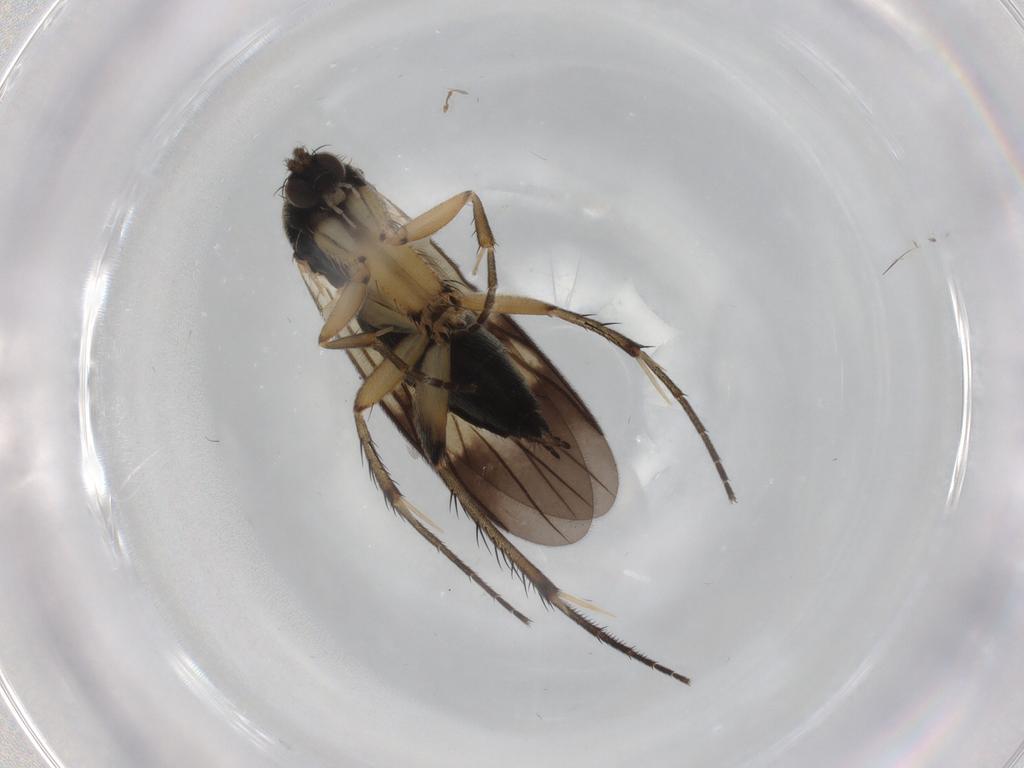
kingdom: Animalia
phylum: Arthropoda
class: Insecta
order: Diptera
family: Mycetophilidae
